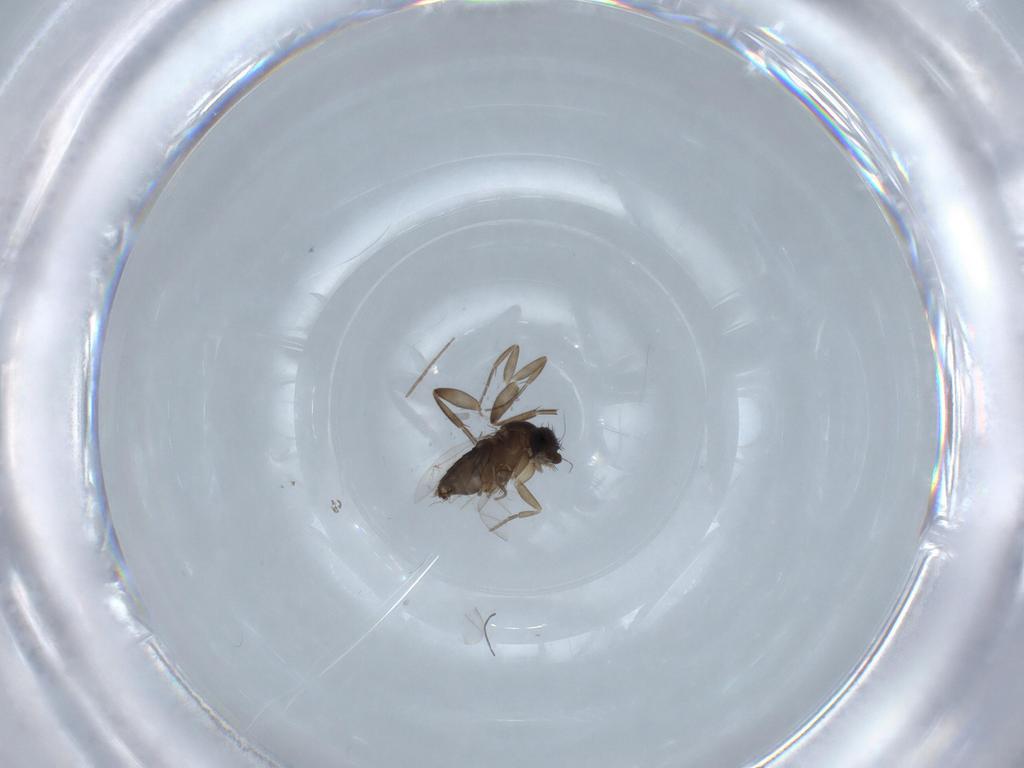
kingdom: Animalia
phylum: Arthropoda
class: Insecta
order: Diptera
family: Phoridae
